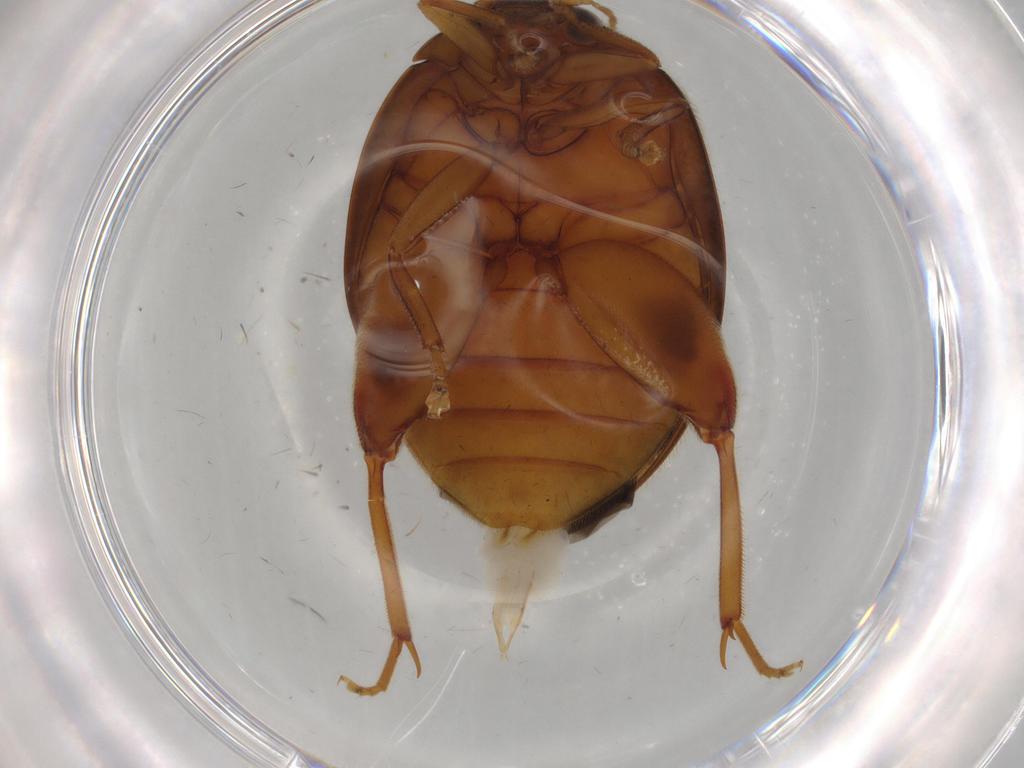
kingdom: Animalia
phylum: Arthropoda
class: Insecta
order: Coleoptera
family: Scirtidae
